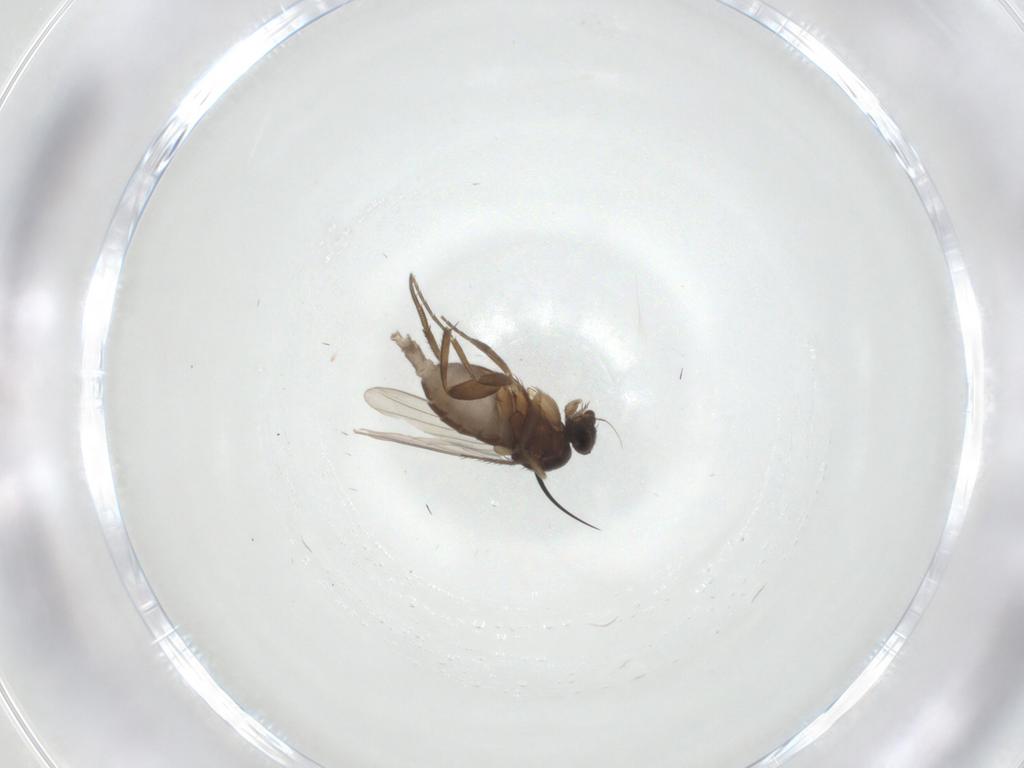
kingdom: Animalia
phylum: Arthropoda
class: Insecta
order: Diptera
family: Phoridae
